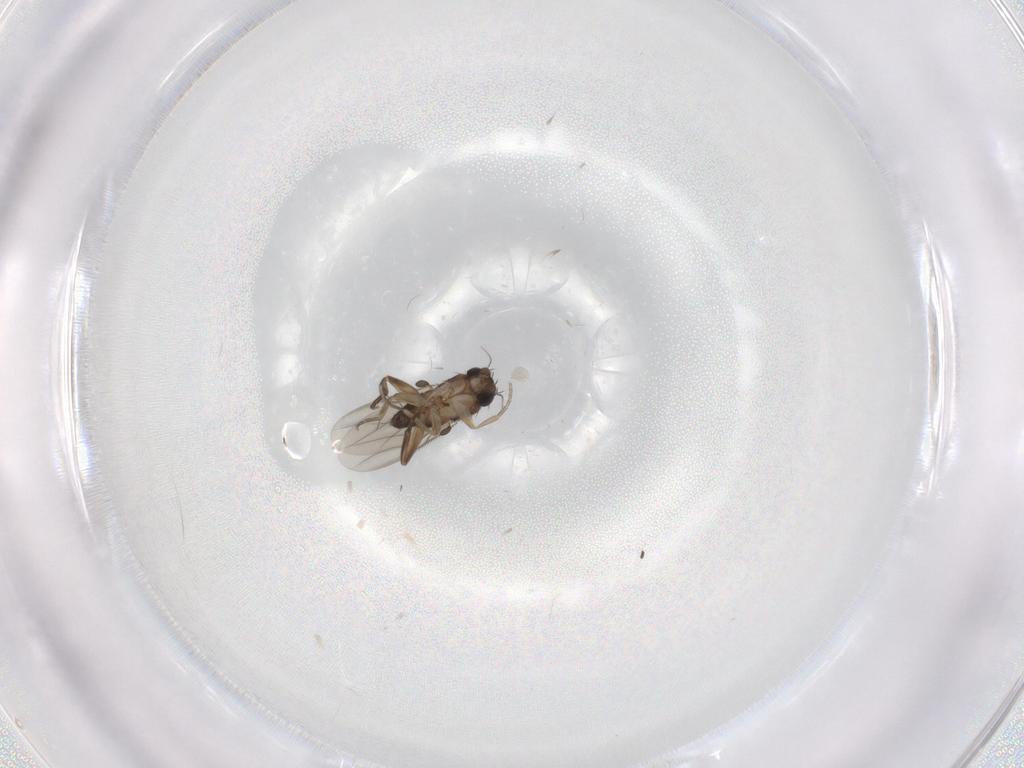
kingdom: Animalia
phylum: Arthropoda
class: Insecta
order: Diptera
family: Phoridae
